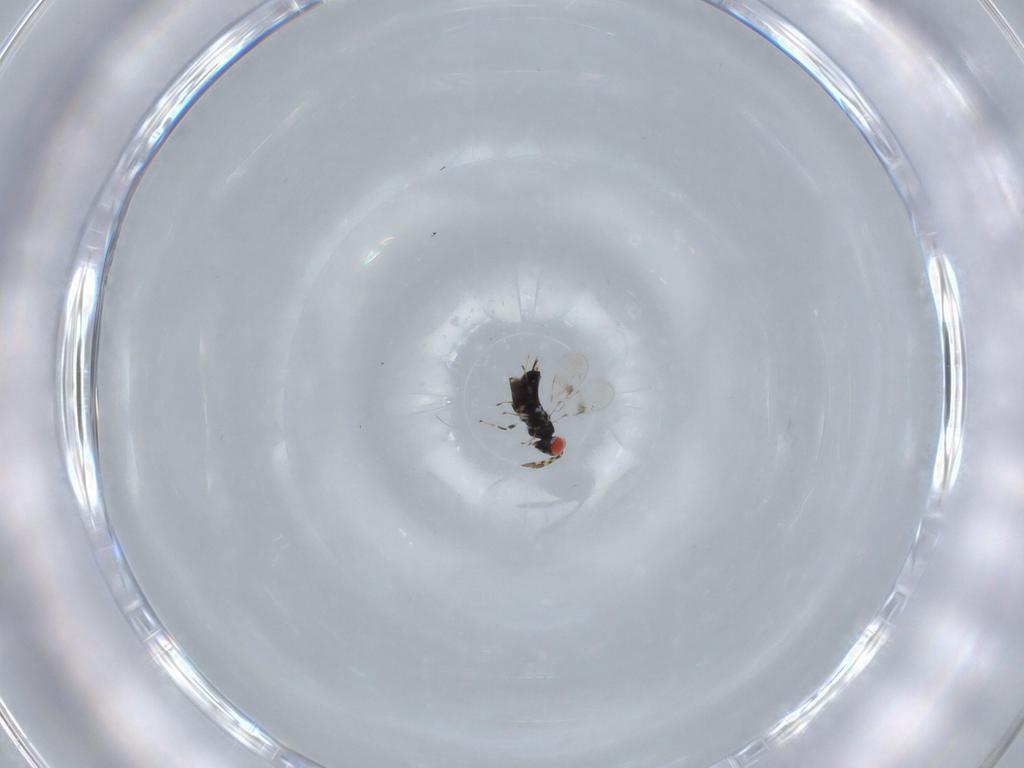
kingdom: Animalia
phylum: Arthropoda
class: Insecta
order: Hymenoptera
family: Azotidae
